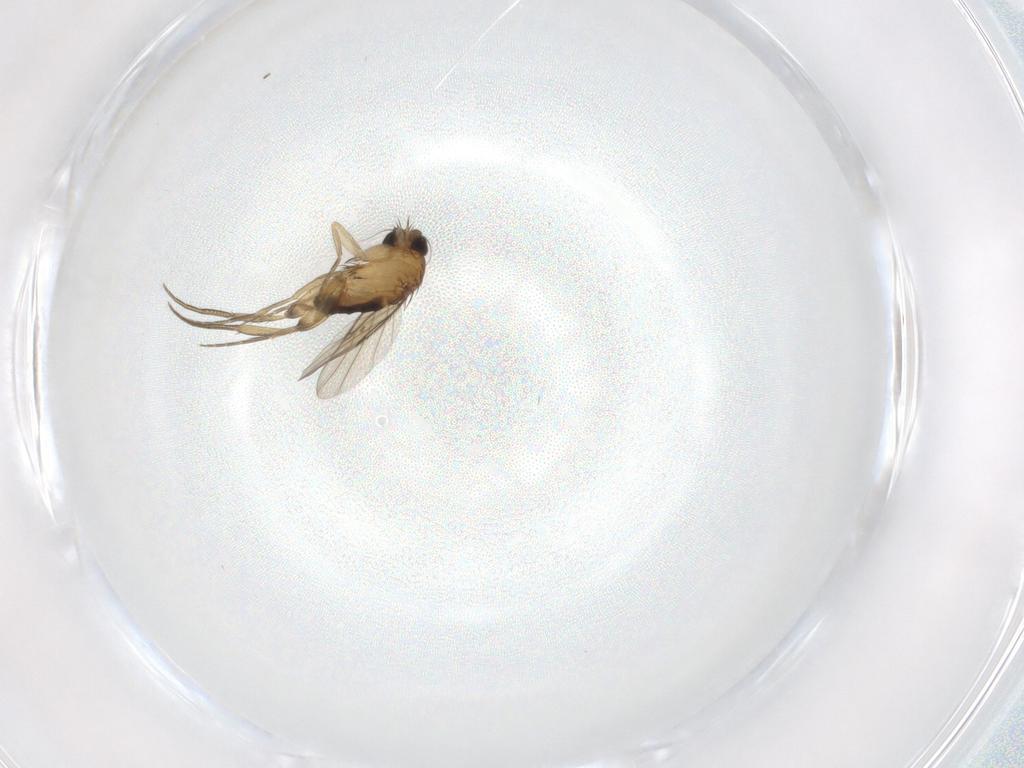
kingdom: Animalia
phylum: Arthropoda
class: Insecta
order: Diptera
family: Phoridae
